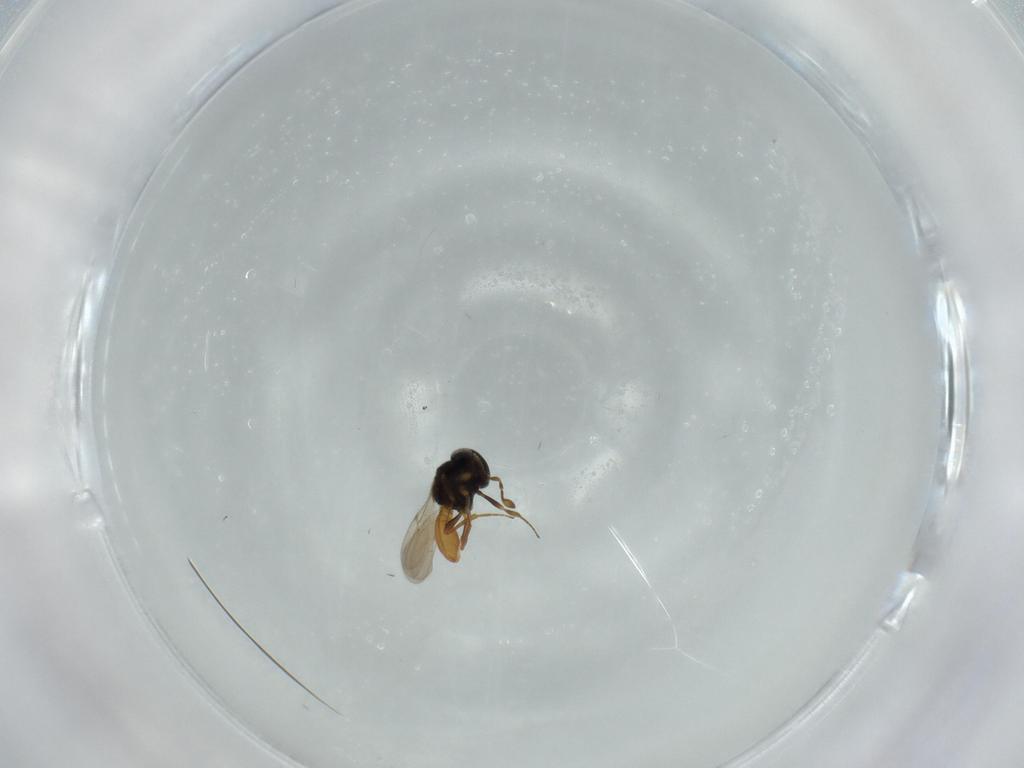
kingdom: Animalia
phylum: Arthropoda
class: Insecta
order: Hymenoptera
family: Scelionidae
